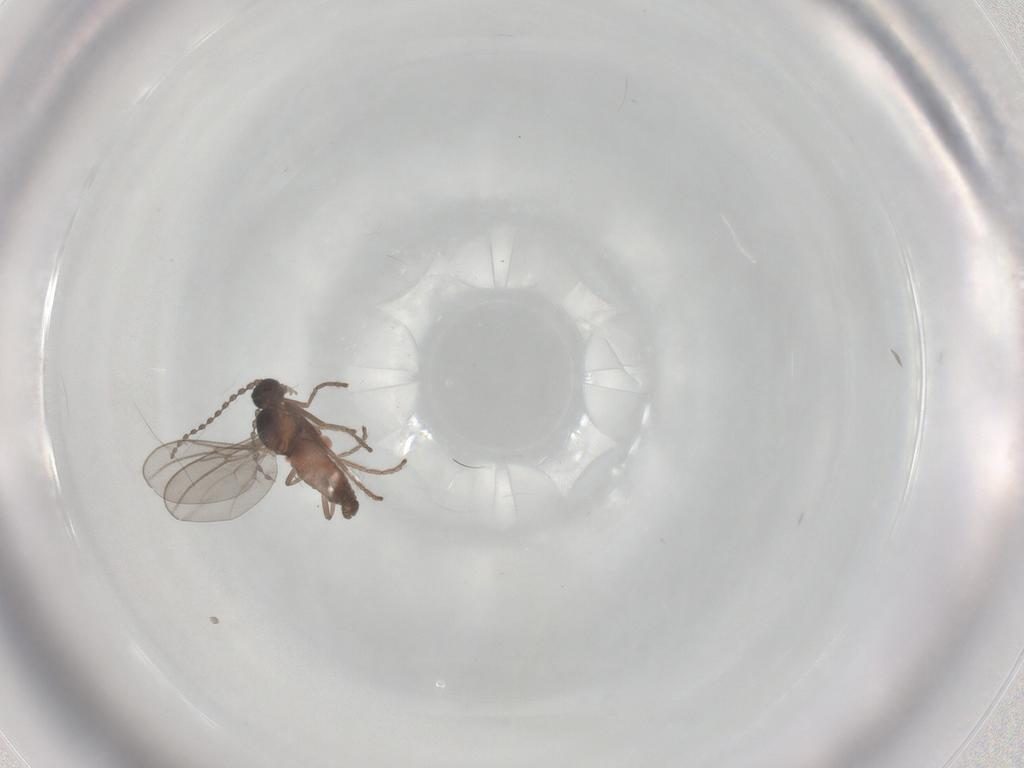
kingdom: Animalia
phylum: Arthropoda
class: Insecta
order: Diptera
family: Cecidomyiidae
